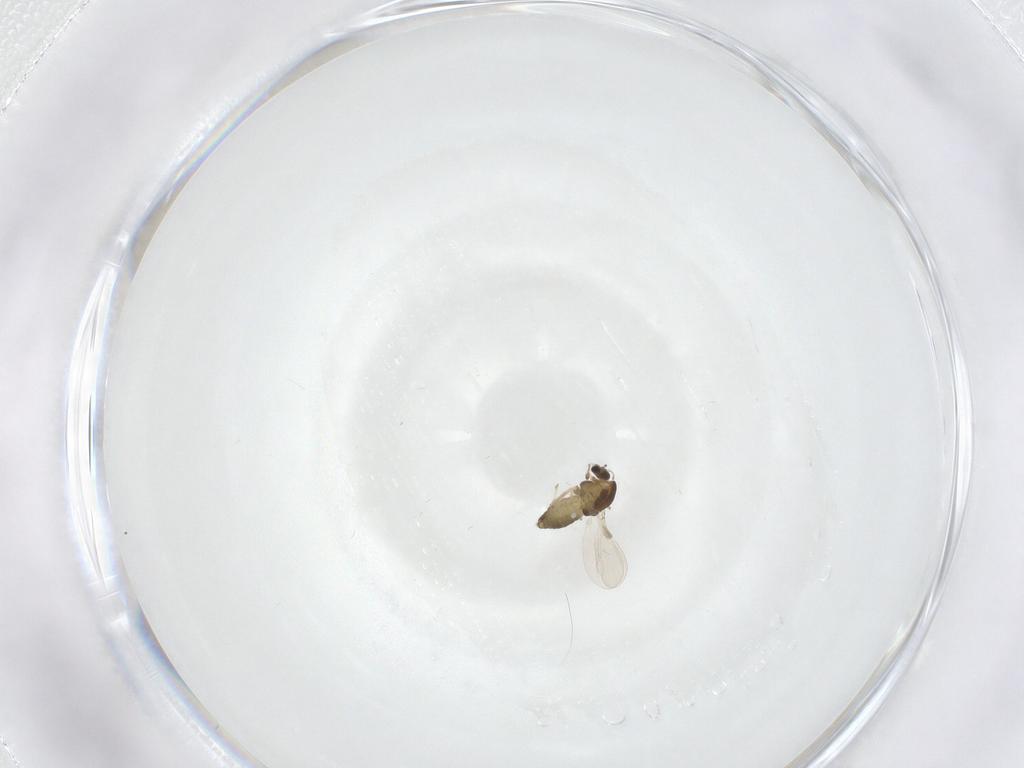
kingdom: Animalia
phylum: Arthropoda
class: Insecta
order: Diptera
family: Chironomidae
